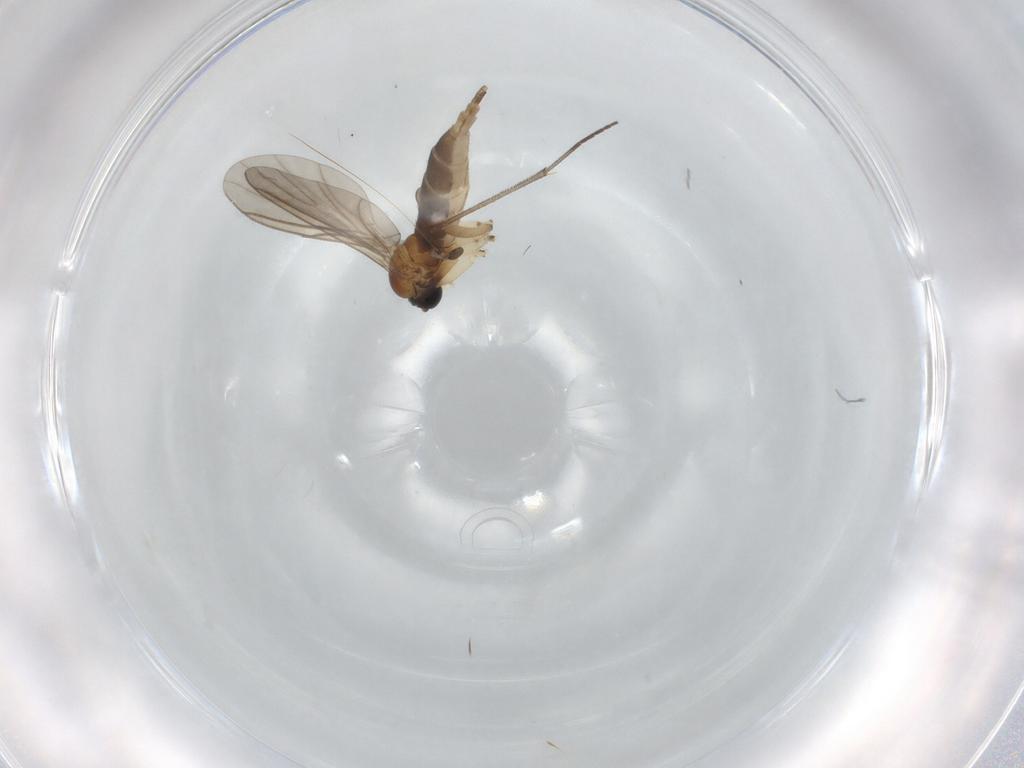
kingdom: Animalia
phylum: Arthropoda
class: Insecta
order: Diptera
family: Sciaridae
